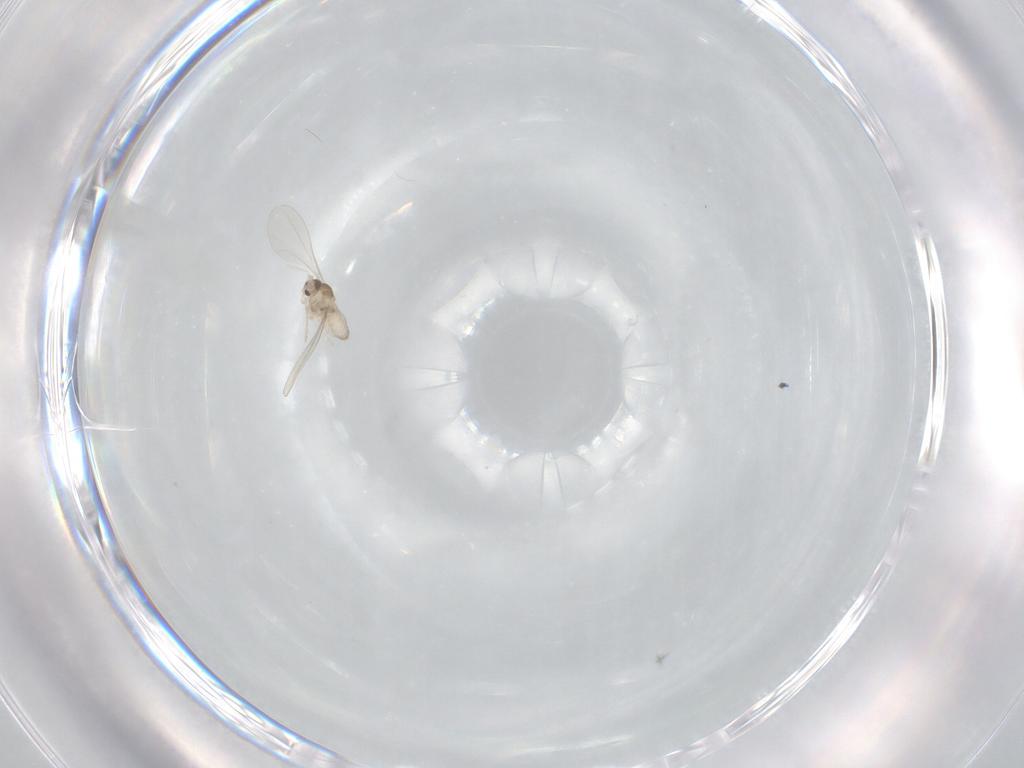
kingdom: Animalia
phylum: Arthropoda
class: Insecta
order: Diptera
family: Cecidomyiidae
